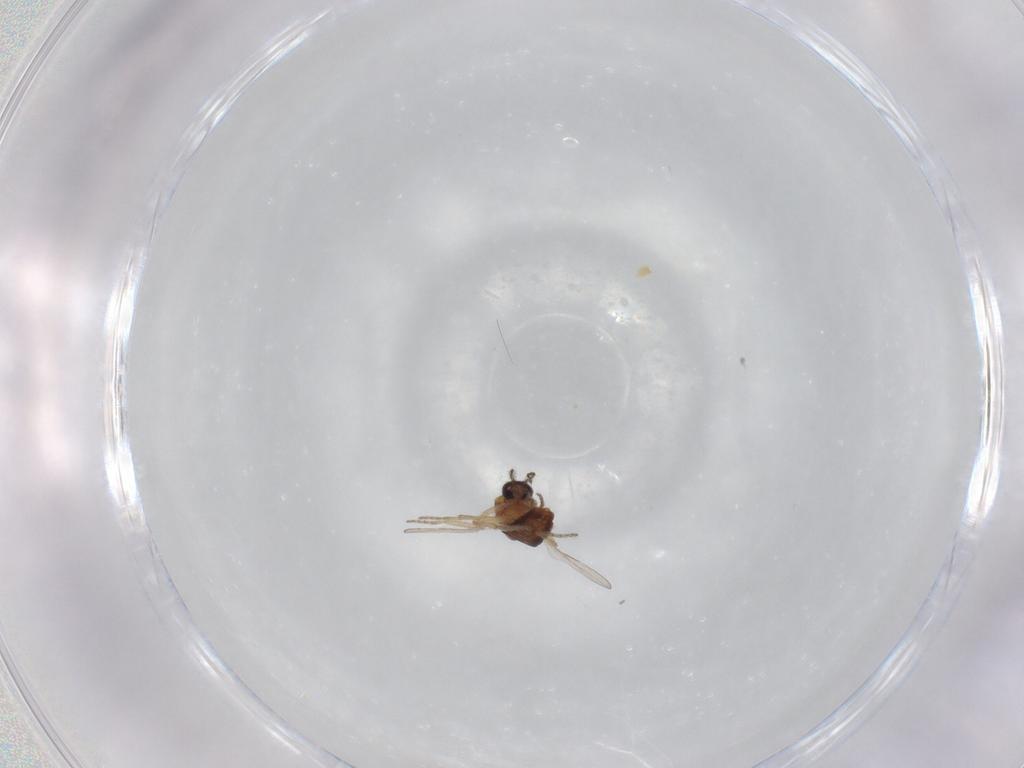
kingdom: Animalia
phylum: Arthropoda
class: Insecta
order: Diptera
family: Ceratopogonidae
